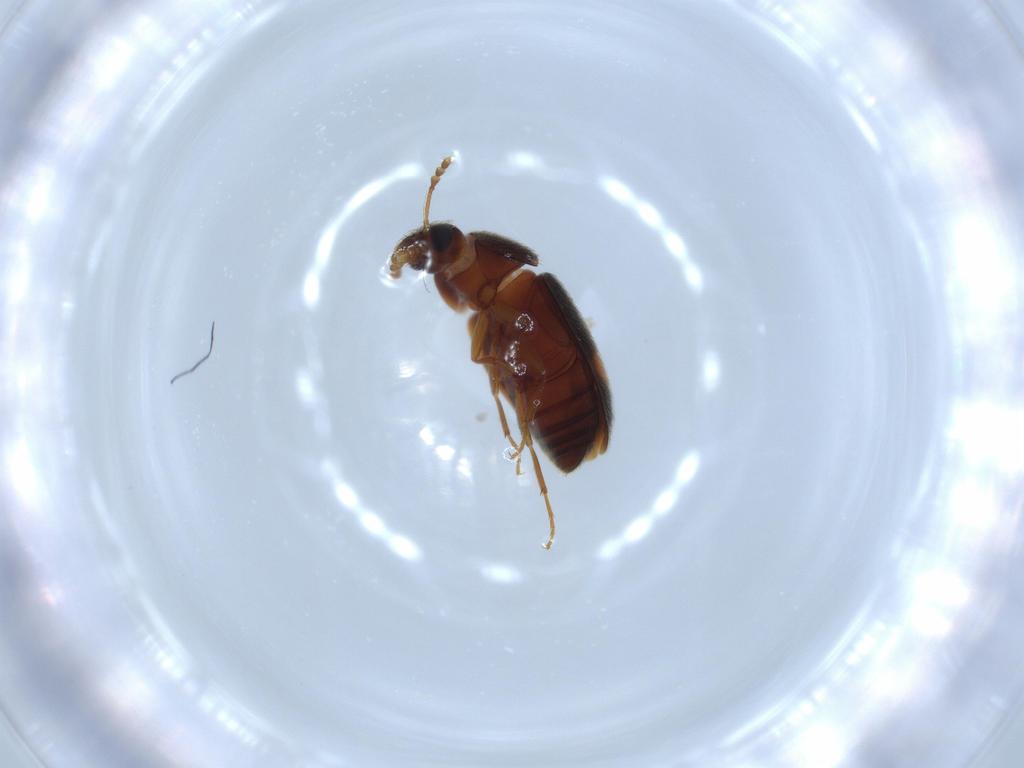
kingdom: Animalia
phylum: Arthropoda
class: Insecta
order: Coleoptera
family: Mycetophagidae
